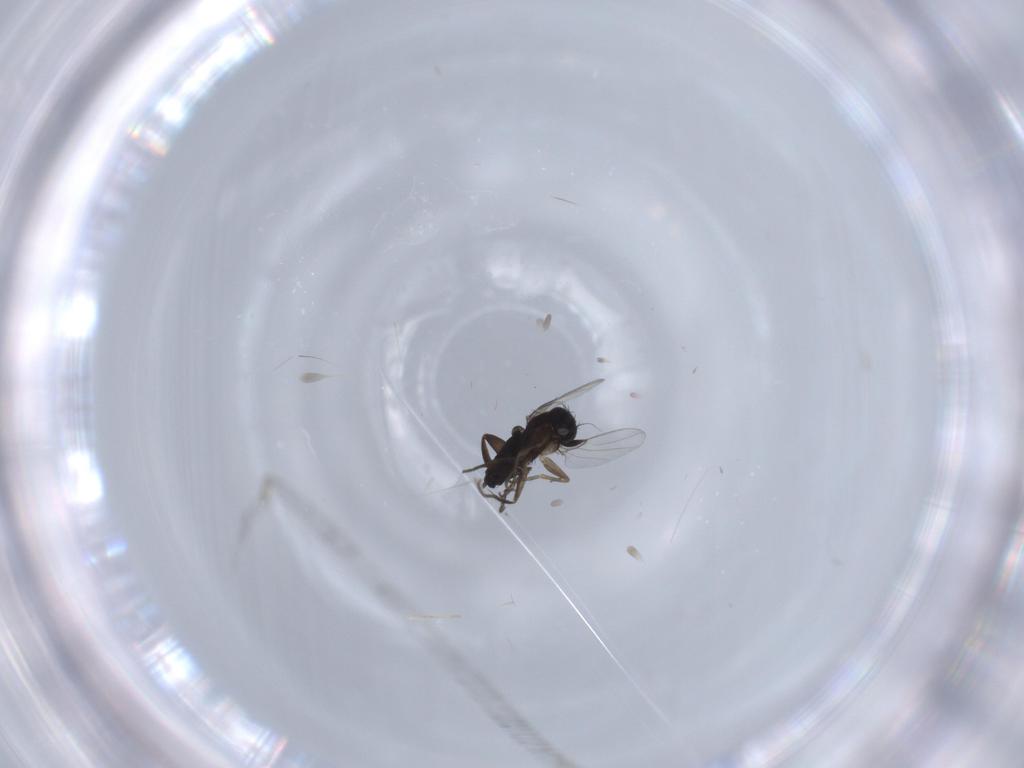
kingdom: Animalia
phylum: Arthropoda
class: Insecta
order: Diptera
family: Phoridae
